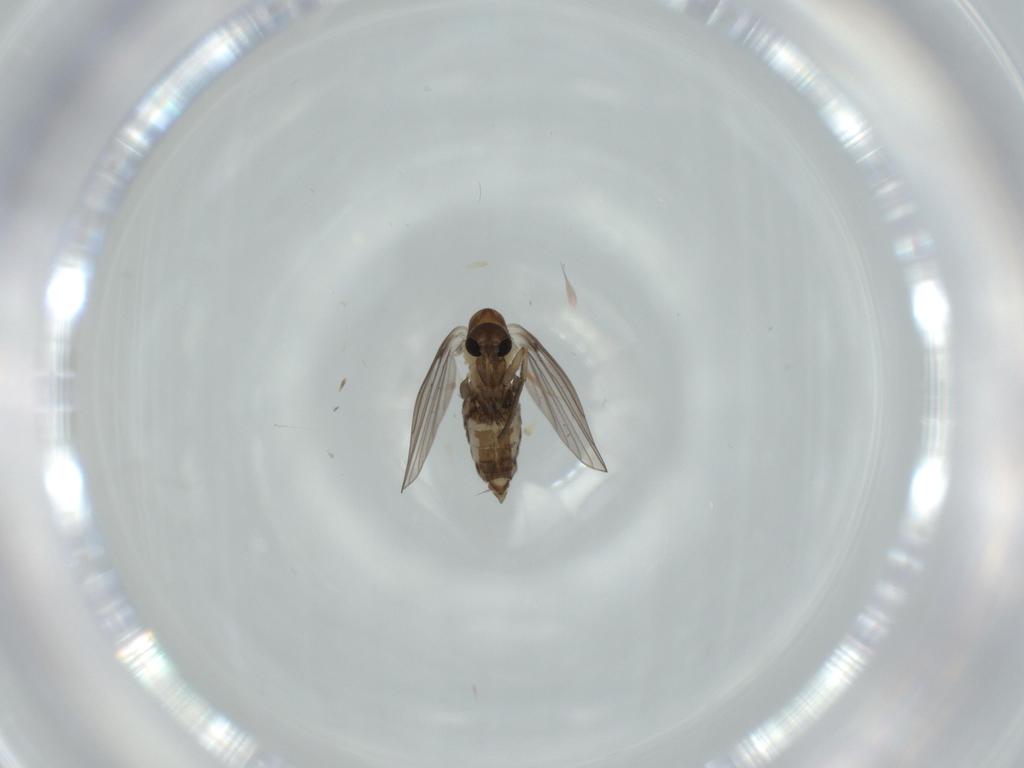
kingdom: Animalia
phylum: Arthropoda
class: Insecta
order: Diptera
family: Psychodidae
